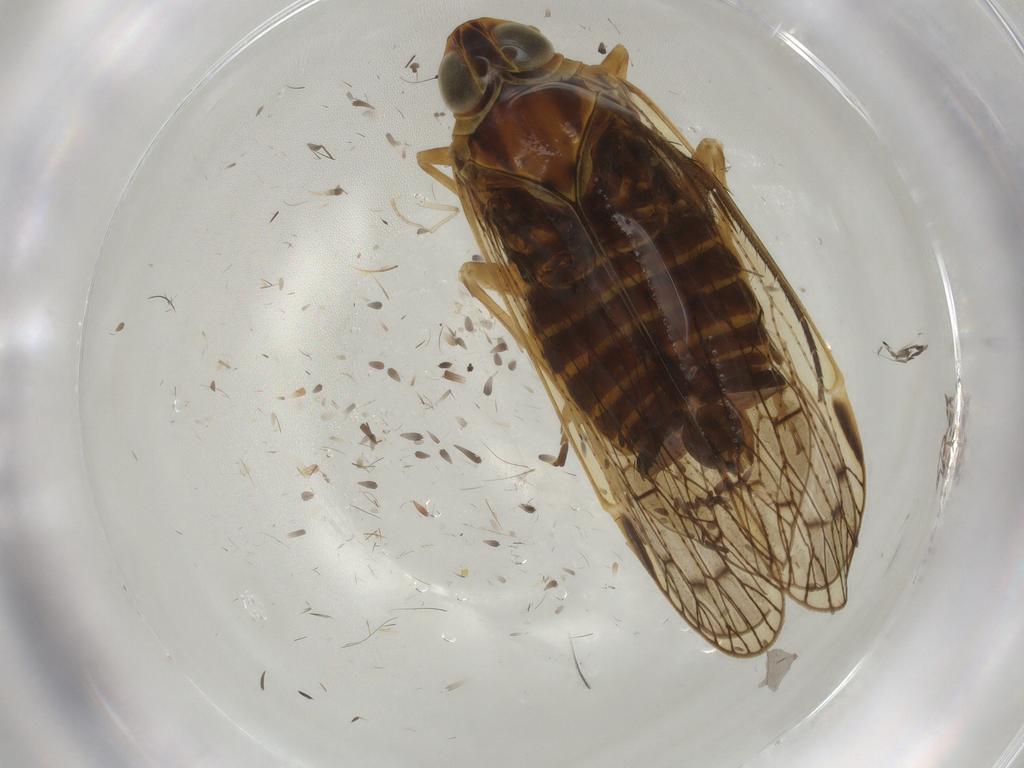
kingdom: Animalia
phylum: Arthropoda
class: Insecta
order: Hemiptera
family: Cixiidae
